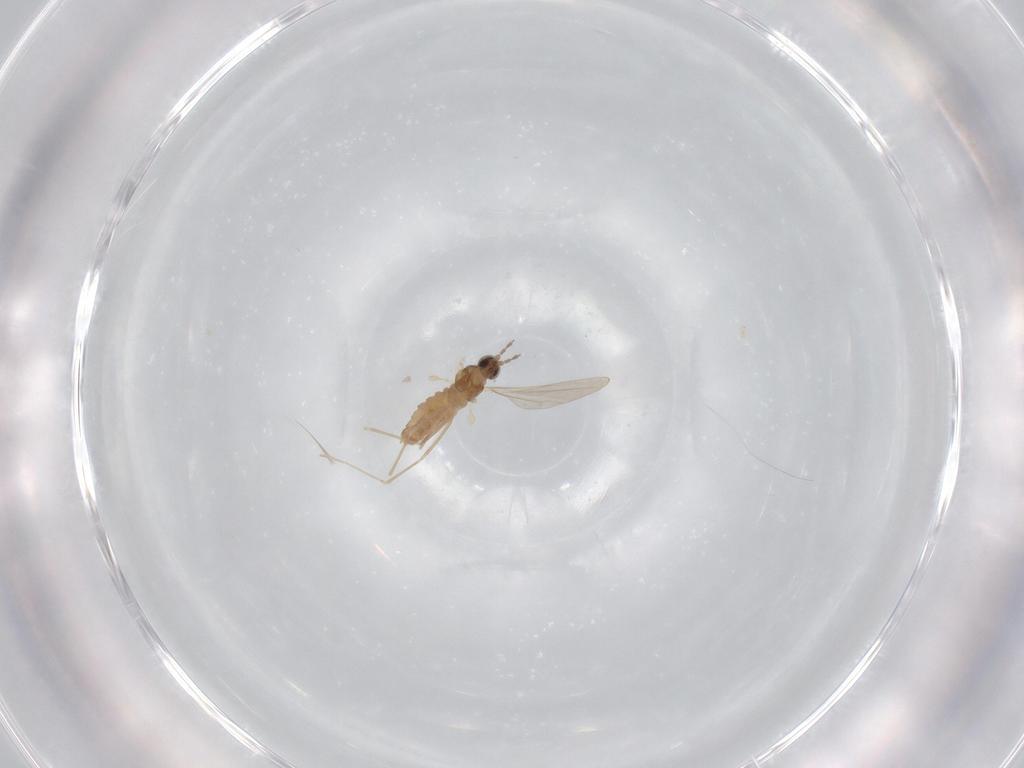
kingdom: Animalia
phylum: Arthropoda
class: Insecta
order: Diptera
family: Cecidomyiidae
